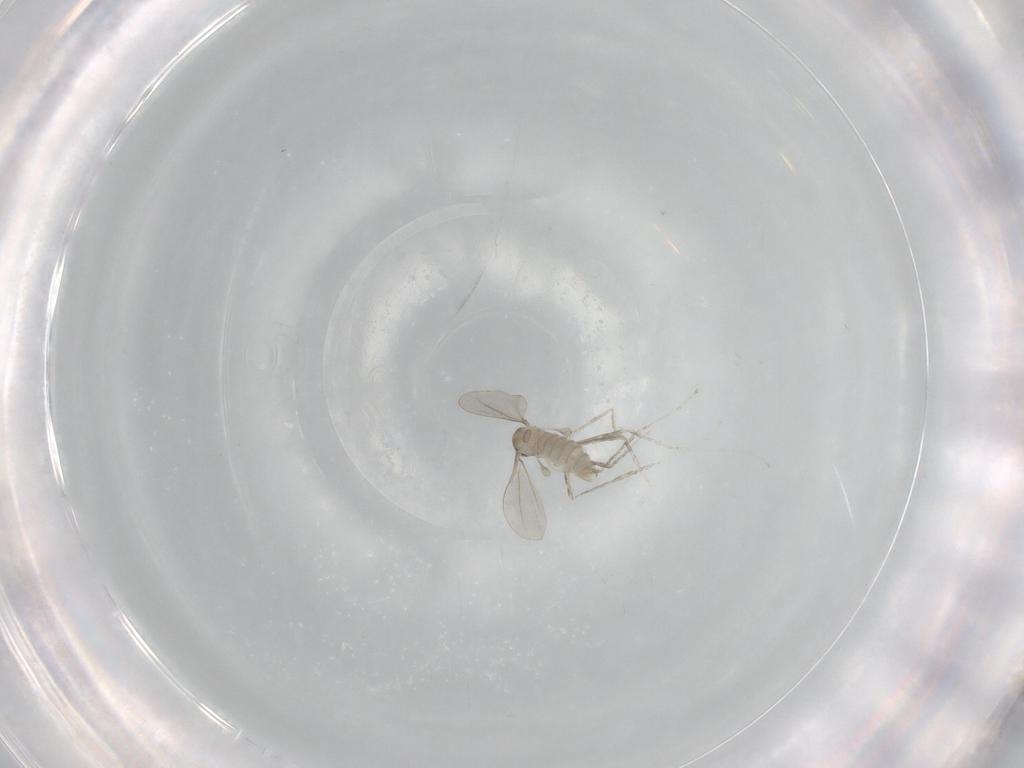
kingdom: Animalia
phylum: Arthropoda
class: Insecta
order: Diptera
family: Cecidomyiidae
